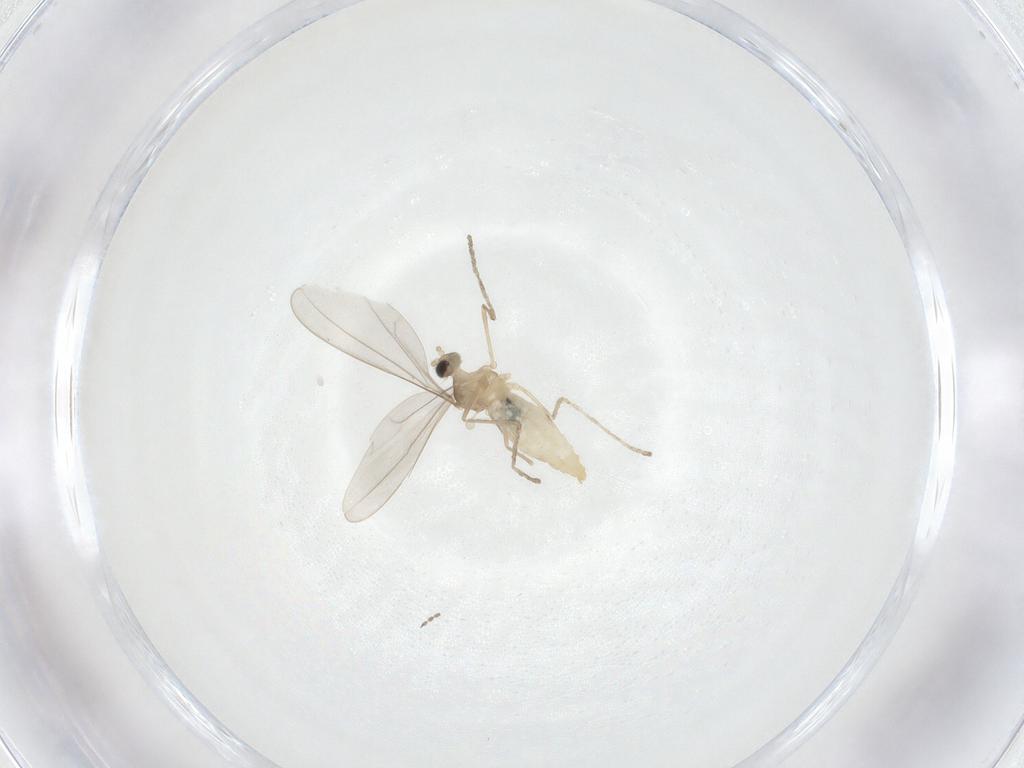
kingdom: Animalia
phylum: Arthropoda
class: Insecta
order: Diptera
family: Cecidomyiidae
